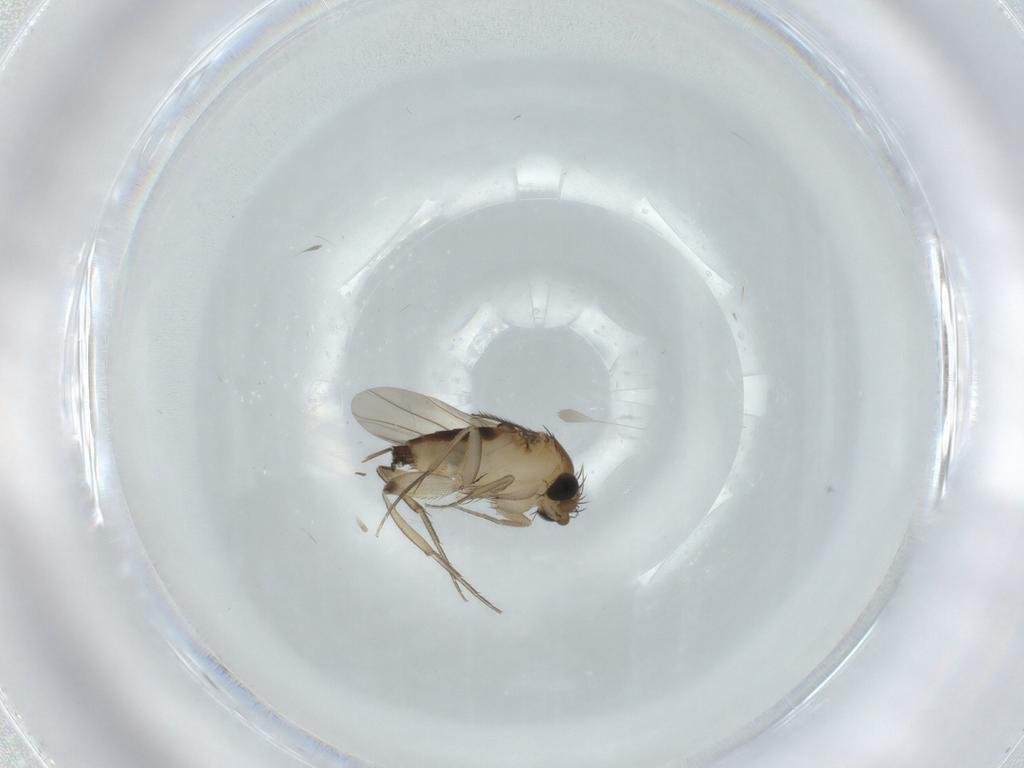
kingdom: Animalia
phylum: Arthropoda
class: Insecta
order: Diptera
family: Phoridae
